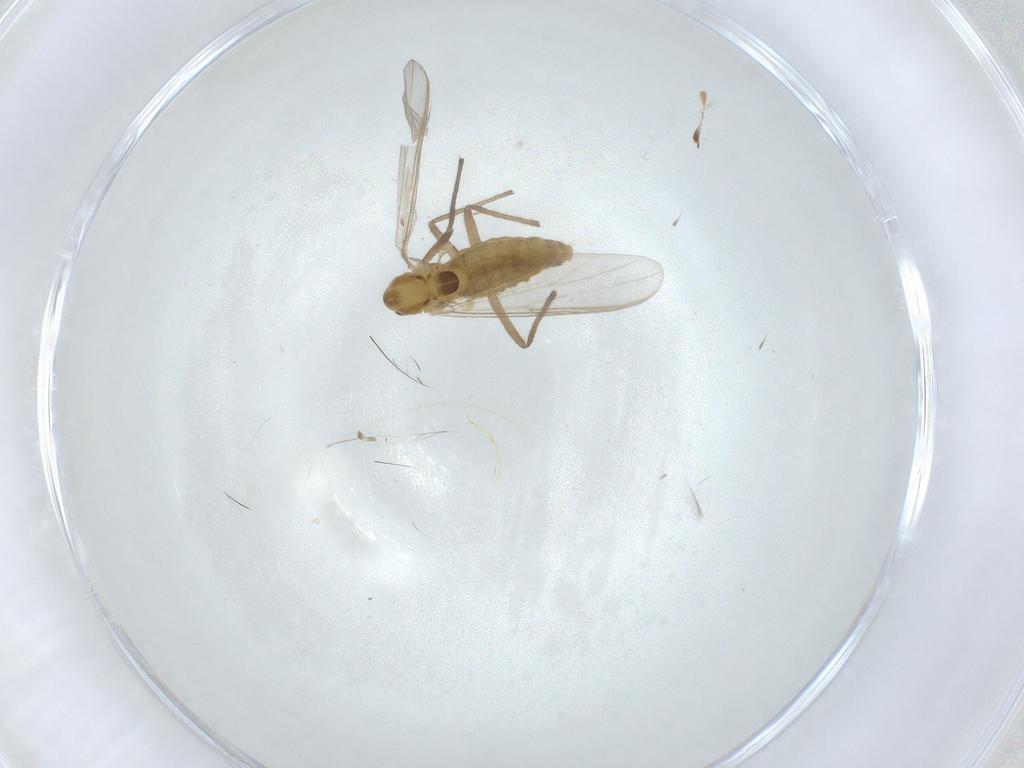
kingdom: Animalia
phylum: Arthropoda
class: Insecta
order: Diptera
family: Chironomidae
